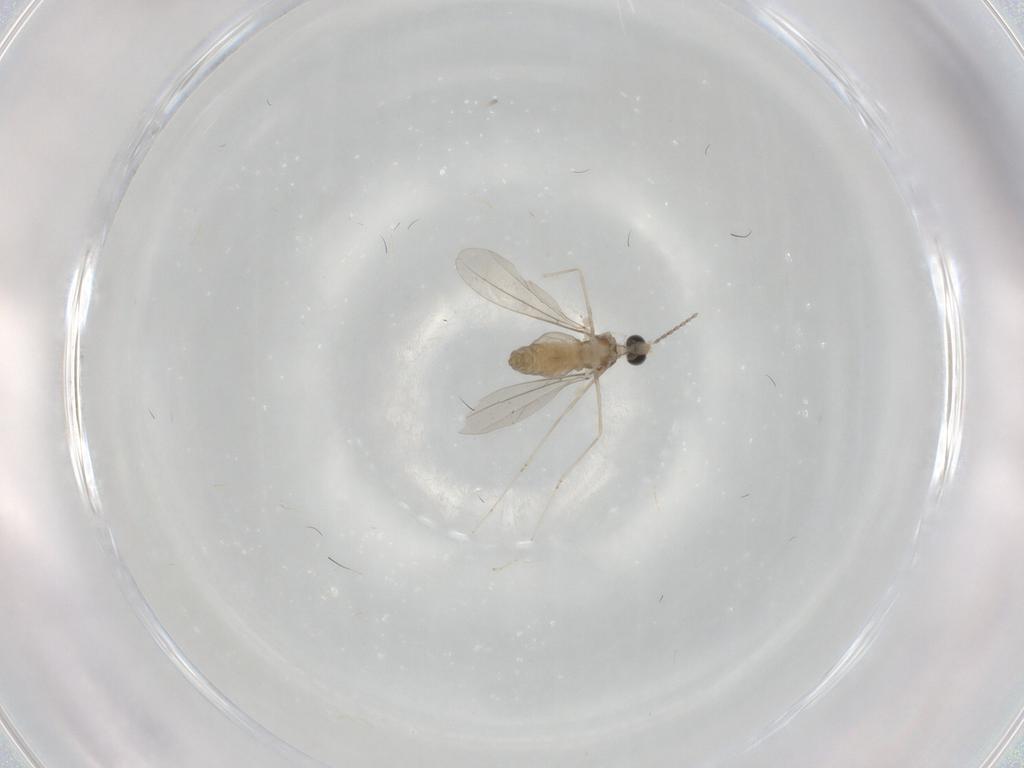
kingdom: Animalia
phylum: Arthropoda
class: Insecta
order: Diptera
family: Cecidomyiidae
